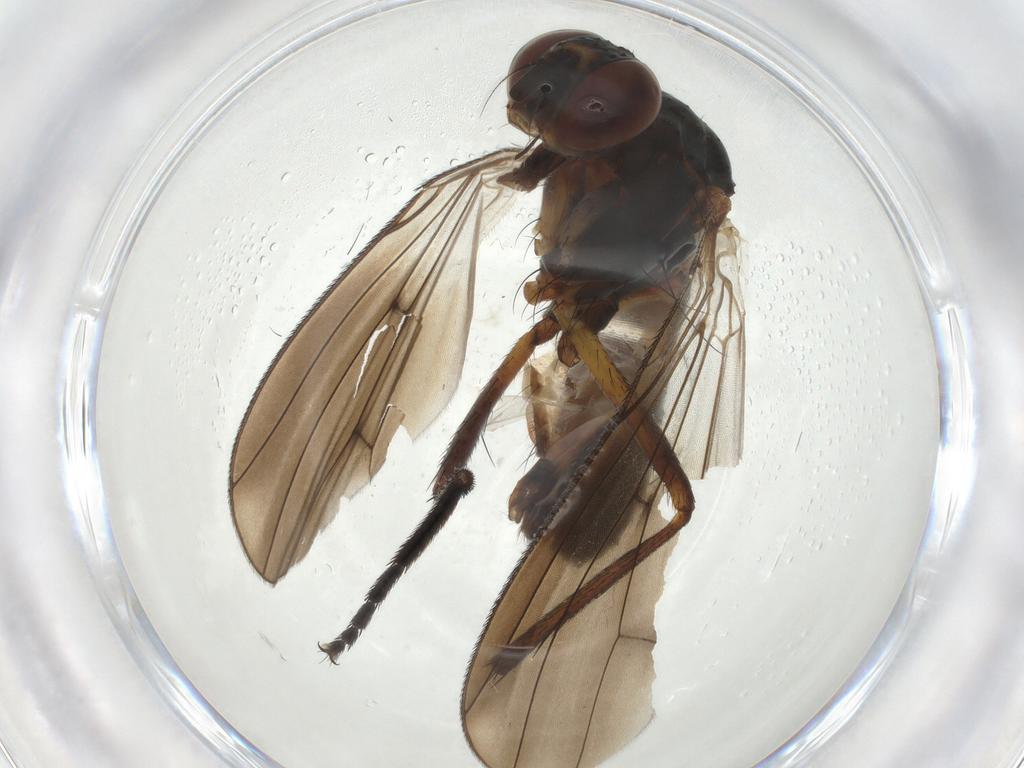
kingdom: Animalia
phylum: Arthropoda
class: Insecta
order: Diptera
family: Anthomyiidae
